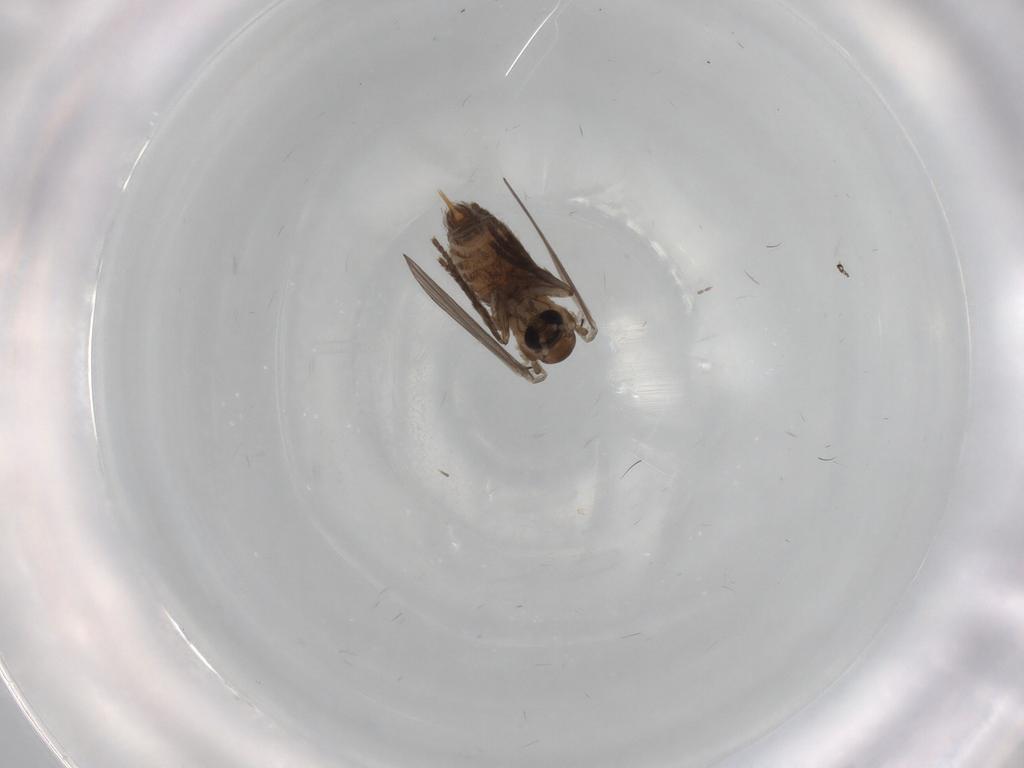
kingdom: Animalia
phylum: Arthropoda
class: Insecta
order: Diptera
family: Psychodidae
